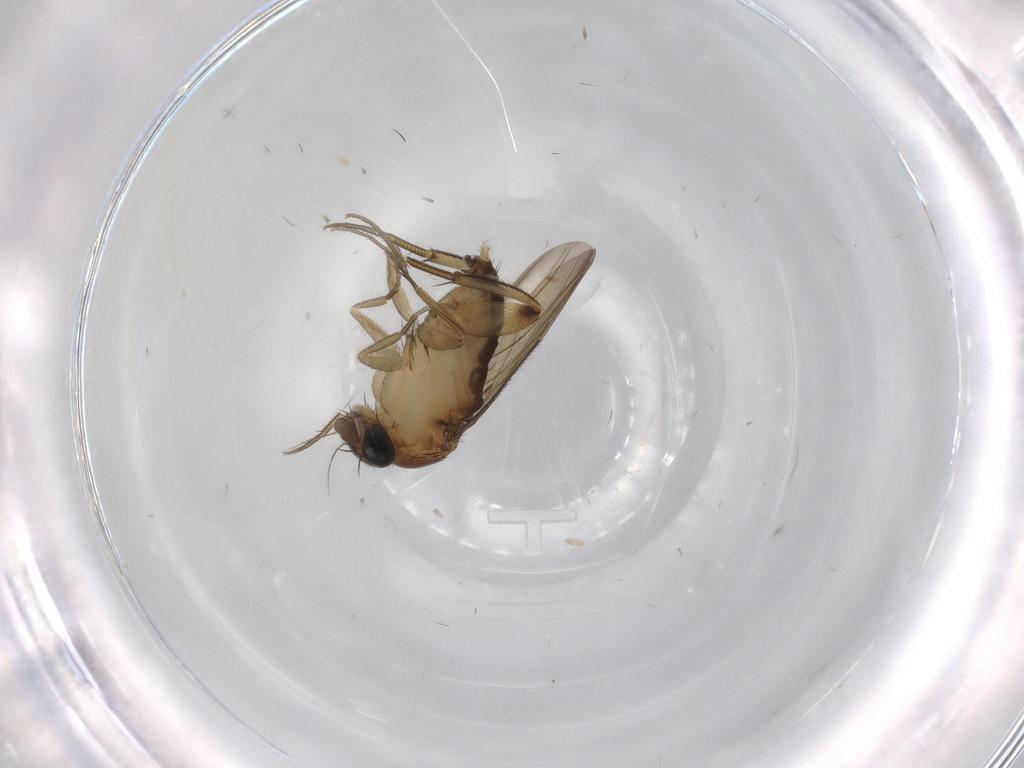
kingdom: Animalia
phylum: Arthropoda
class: Insecta
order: Diptera
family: Phoridae
